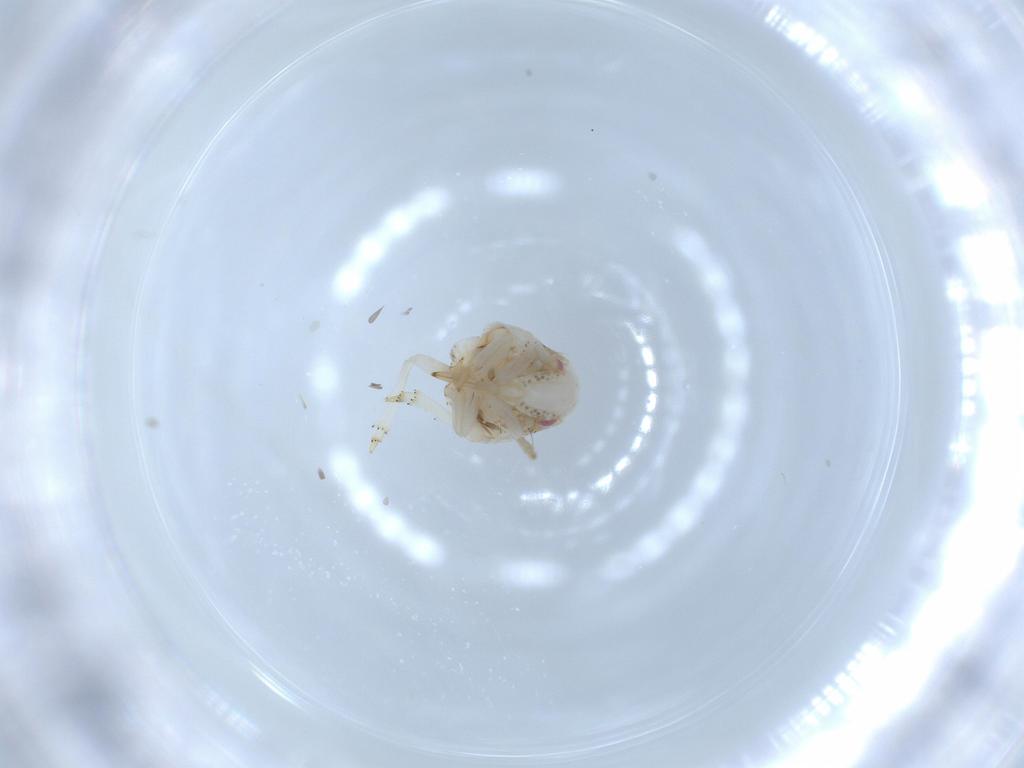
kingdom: Animalia
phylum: Arthropoda
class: Insecta
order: Hemiptera
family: Acanaloniidae
